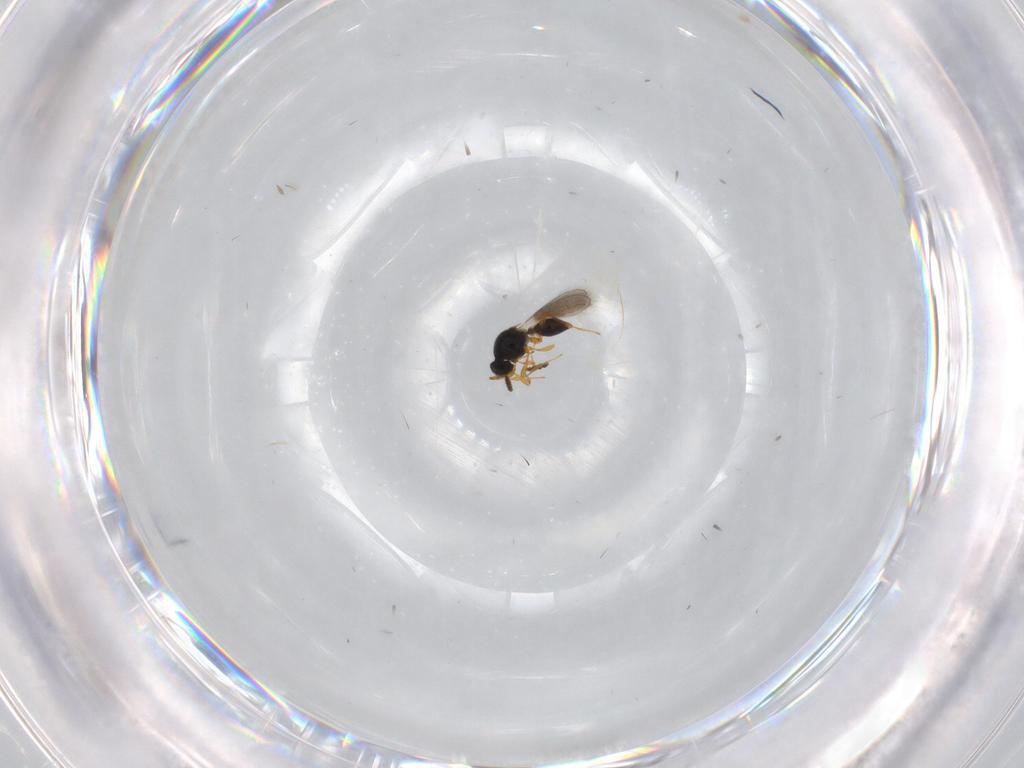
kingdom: Animalia
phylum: Arthropoda
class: Insecta
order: Hymenoptera
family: Platygastridae
